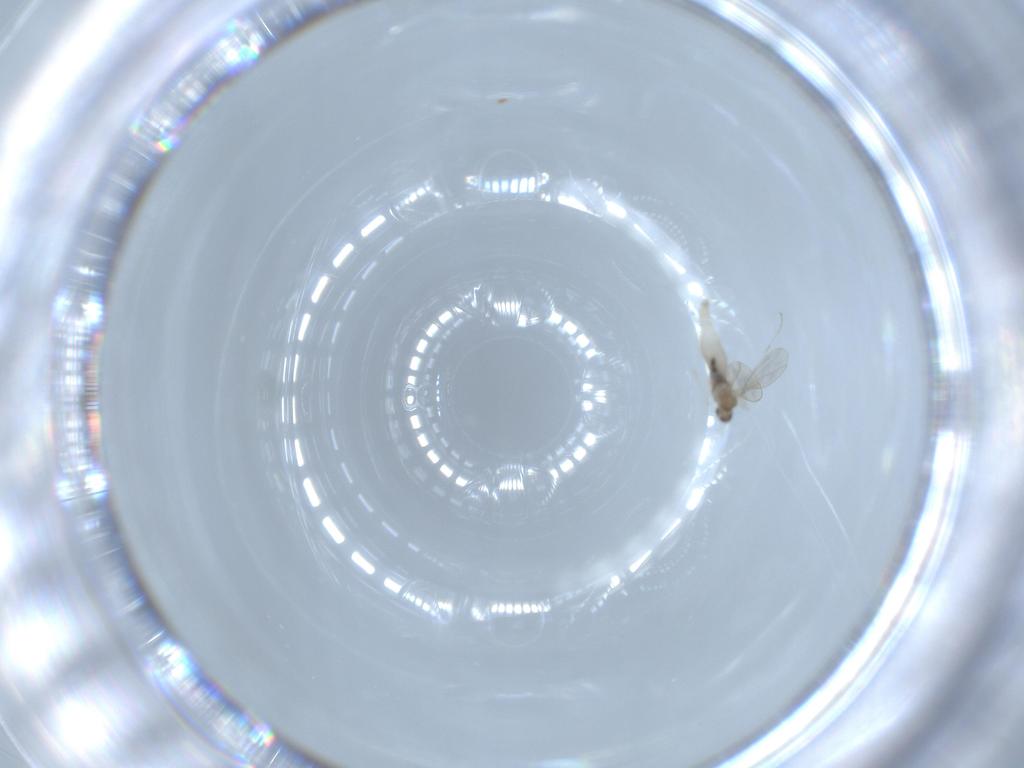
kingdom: Animalia
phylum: Arthropoda
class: Insecta
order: Diptera
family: Cecidomyiidae
